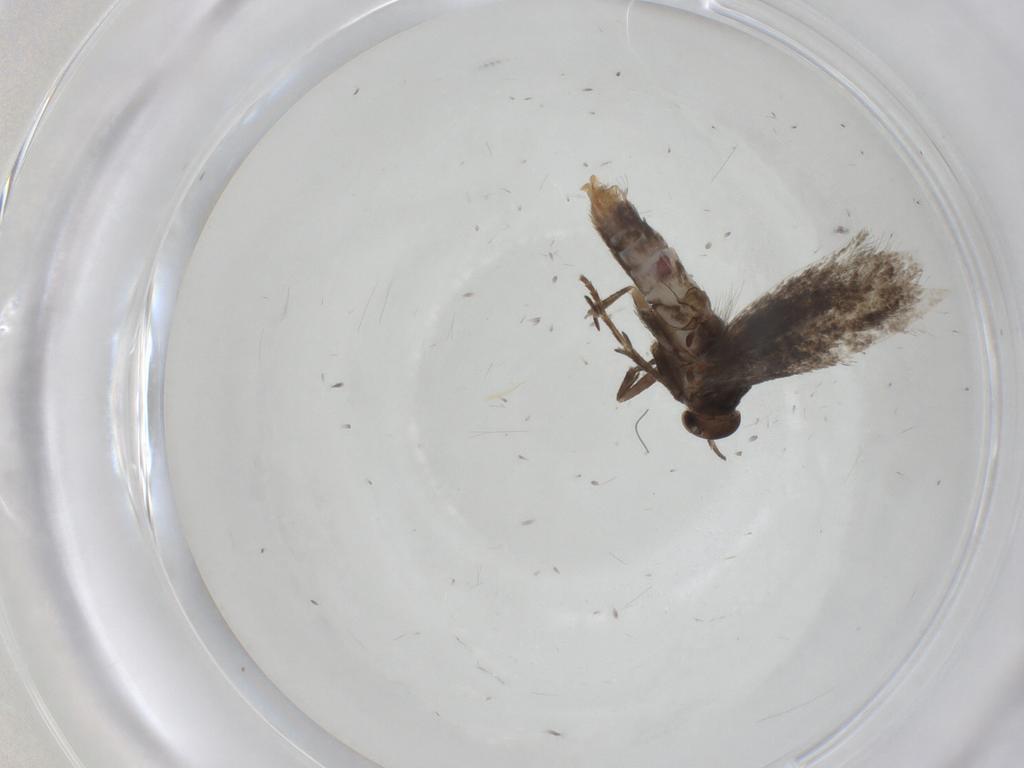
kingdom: Animalia
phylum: Arthropoda
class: Insecta
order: Lepidoptera
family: Elachistidae
